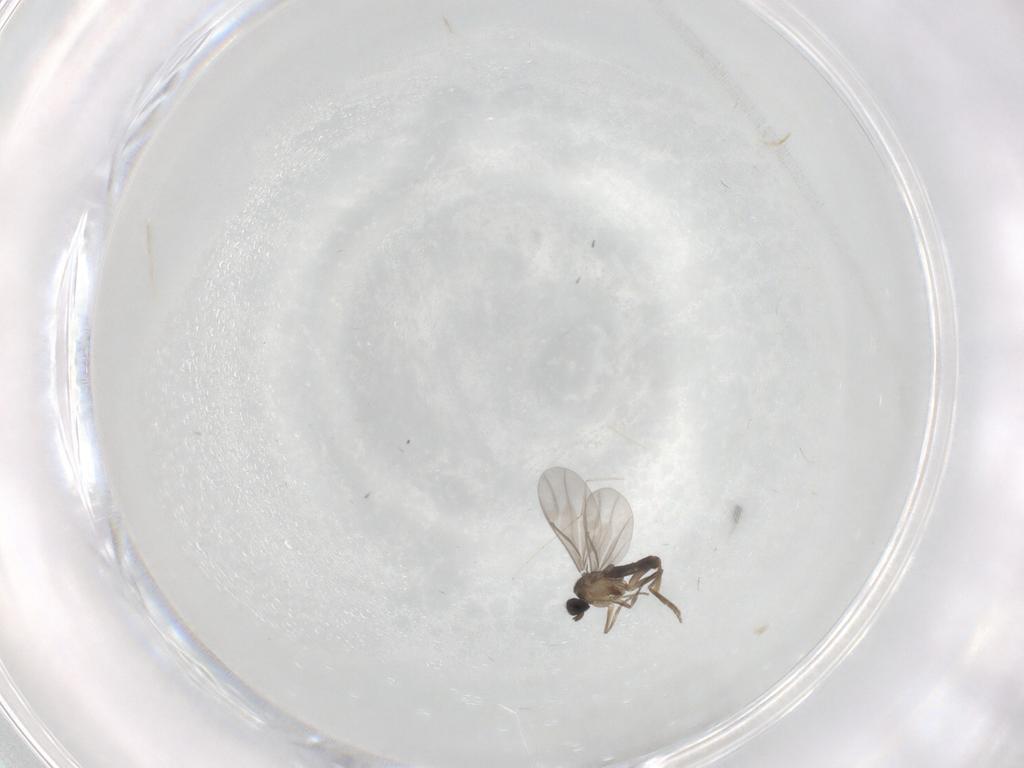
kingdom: Animalia
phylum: Arthropoda
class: Insecta
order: Diptera
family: Cecidomyiidae
